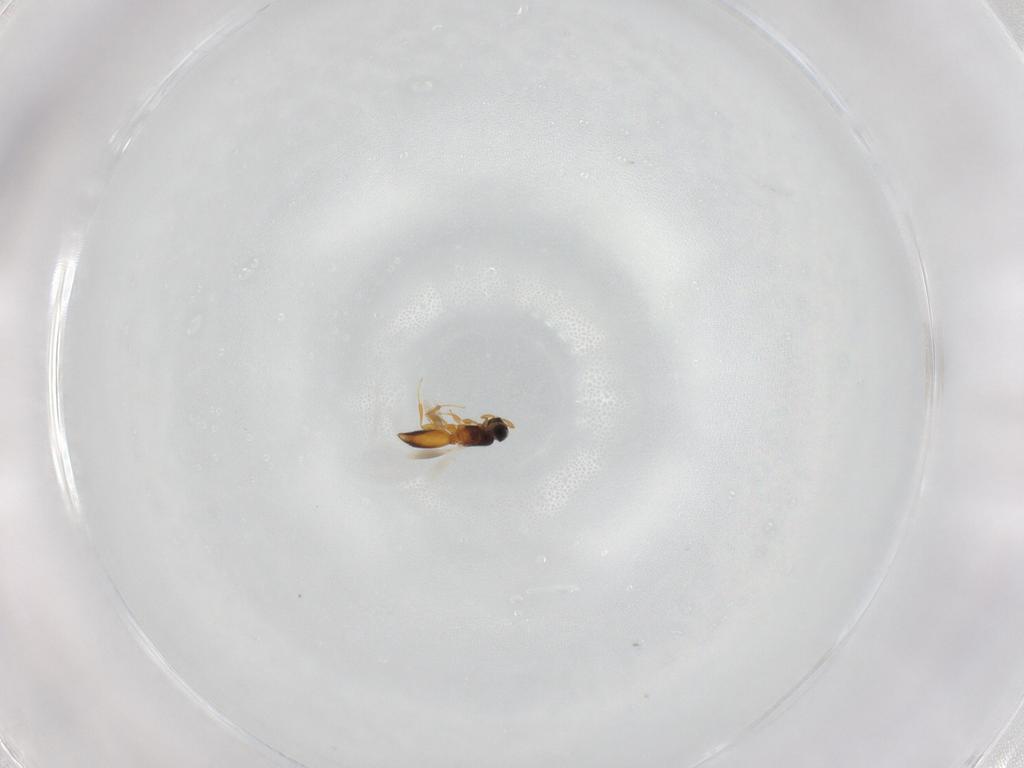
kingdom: Animalia
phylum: Arthropoda
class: Insecta
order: Hymenoptera
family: Platygastridae
